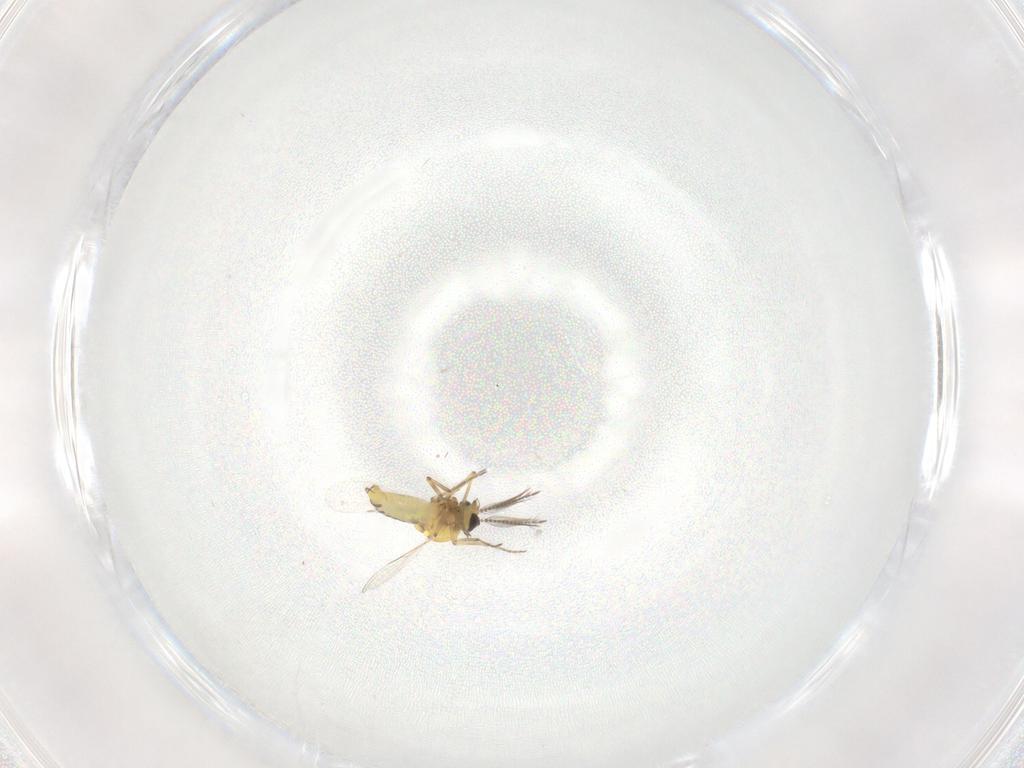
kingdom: Animalia
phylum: Arthropoda
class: Insecta
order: Diptera
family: Ceratopogonidae
